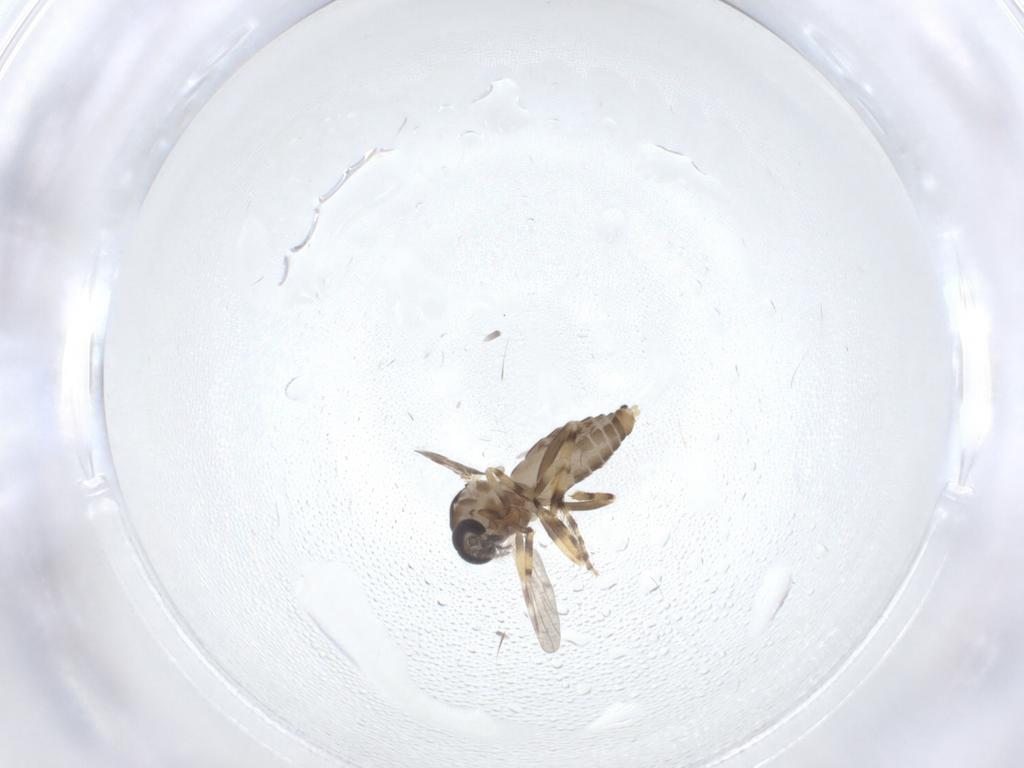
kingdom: Animalia
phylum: Arthropoda
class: Insecta
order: Diptera
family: Ceratopogonidae
